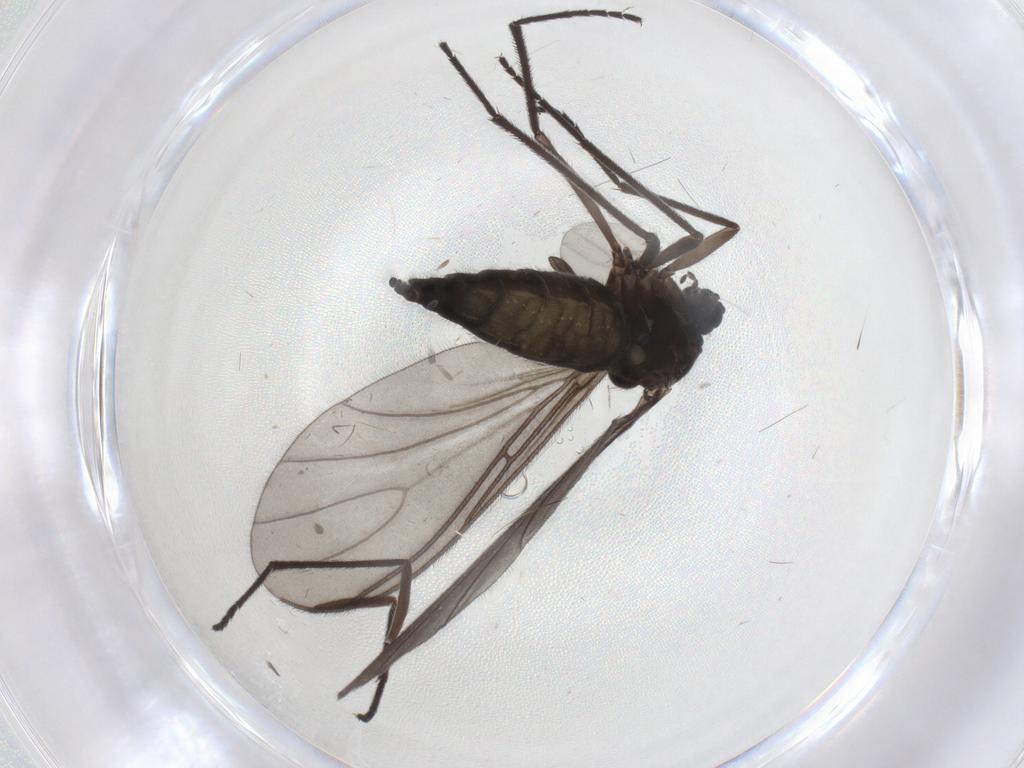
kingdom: Animalia
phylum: Arthropoda
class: Insecta
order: Diptera
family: Sciaridae
